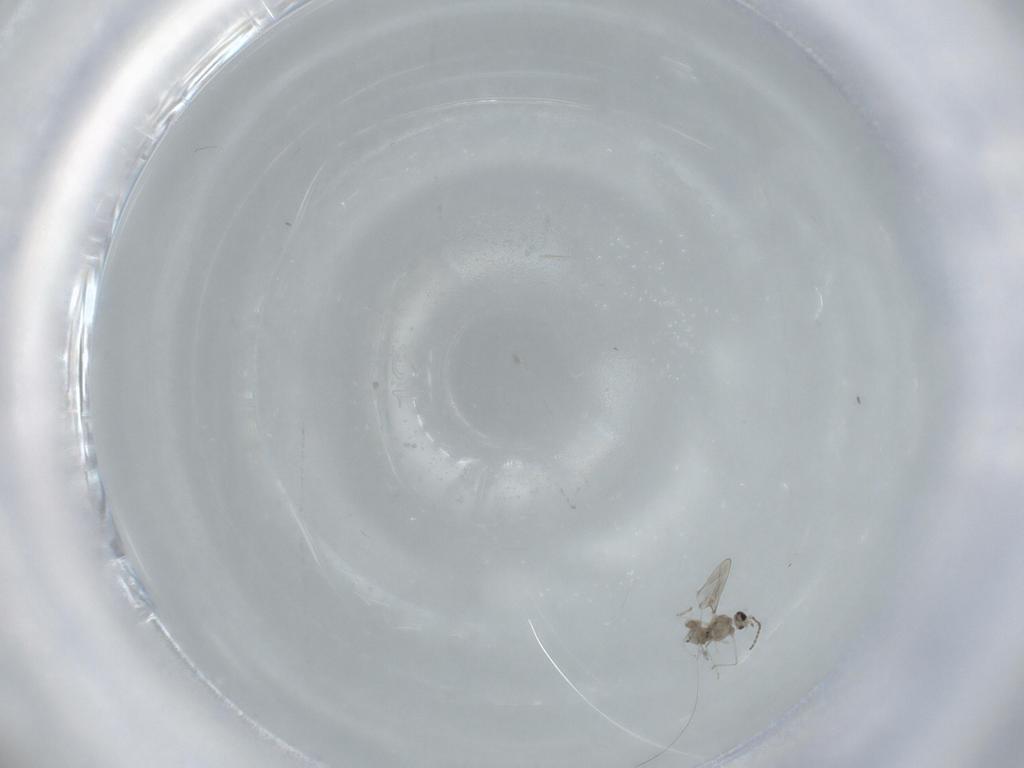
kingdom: Animalia
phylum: Arthropoda
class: Insecta
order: Diptera
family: Cecidomyiidae
